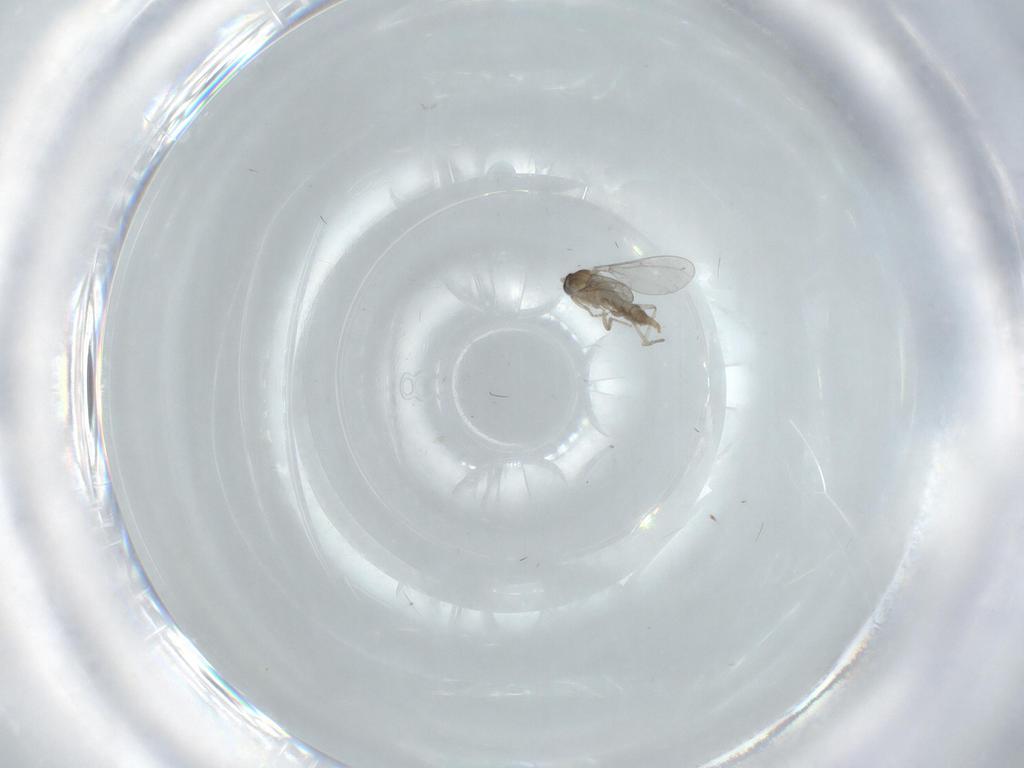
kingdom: Animalia
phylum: Arthropoda
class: Insecta
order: Diptera
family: Cecidomyiidae
